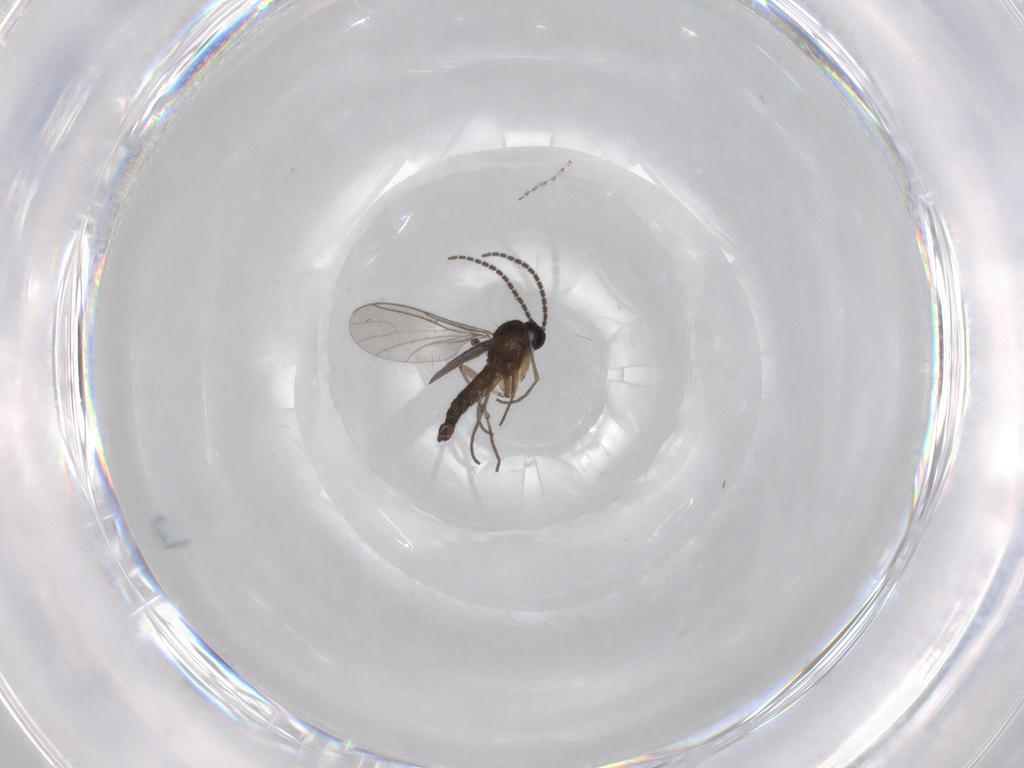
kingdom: Animalia
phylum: Arthropoda
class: Insecta
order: Diptera
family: Sciaridae
